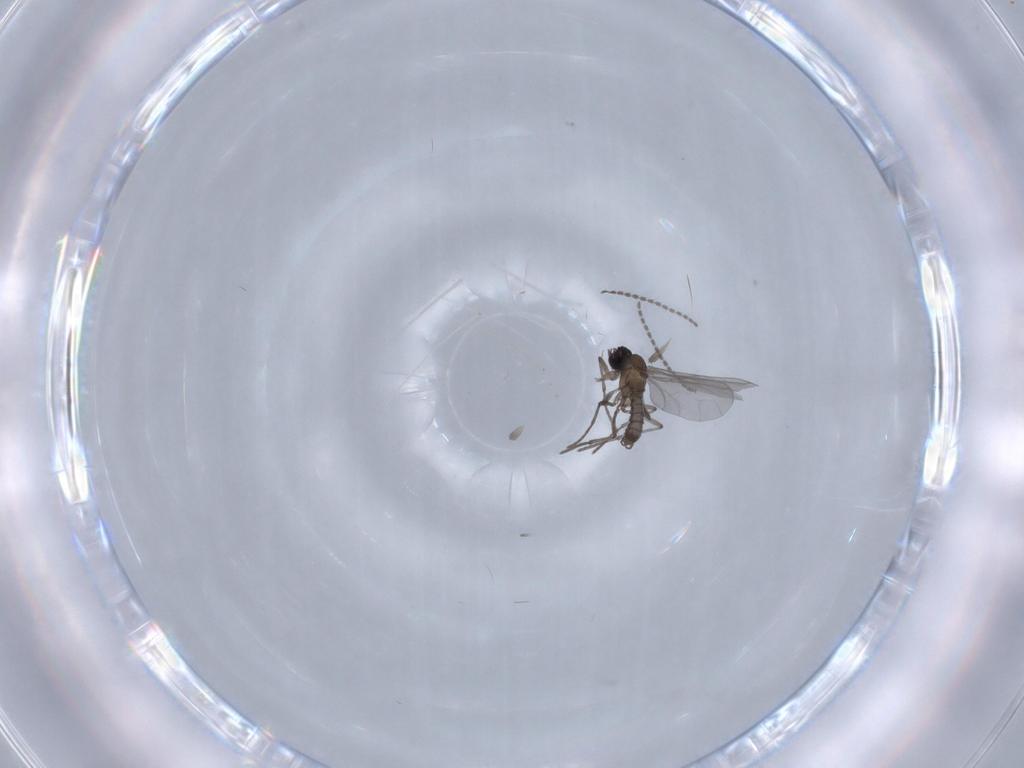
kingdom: Animalia
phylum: Arthropoda
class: Insecta
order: Diptera
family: Sciaridae
